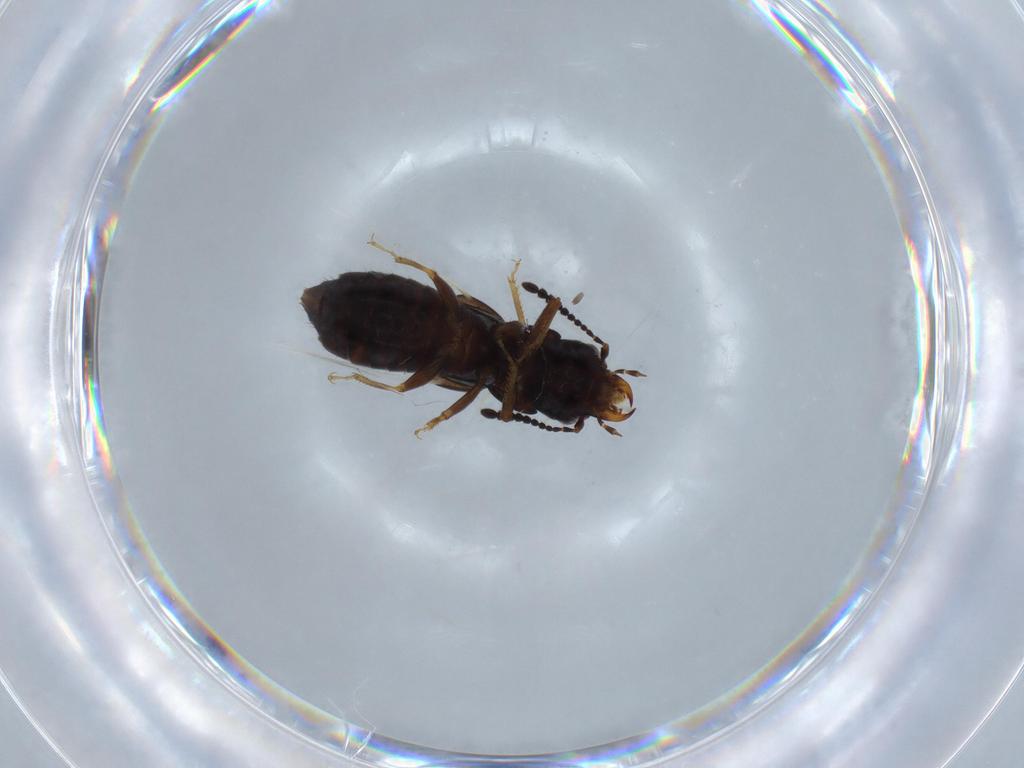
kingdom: Animalia
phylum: Arthropoda
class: Insecta
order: Coleoptera
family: Staphylinidae
